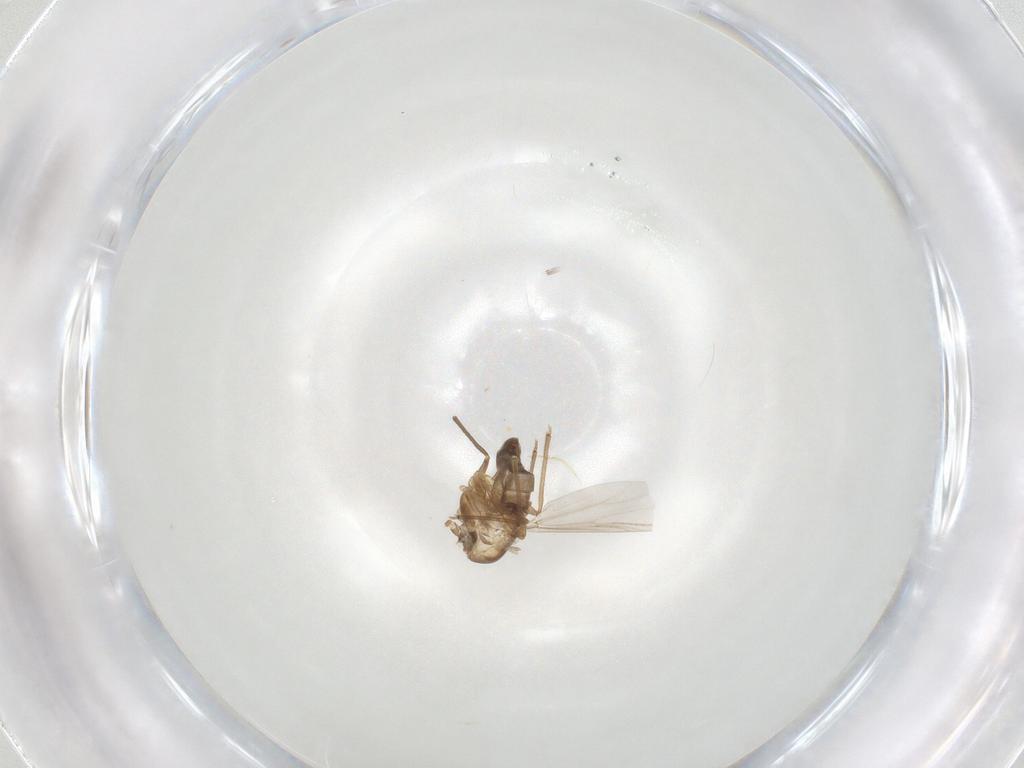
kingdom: Animalia
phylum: Arthropoda
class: Insecta
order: Diptera
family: Chironomidae
